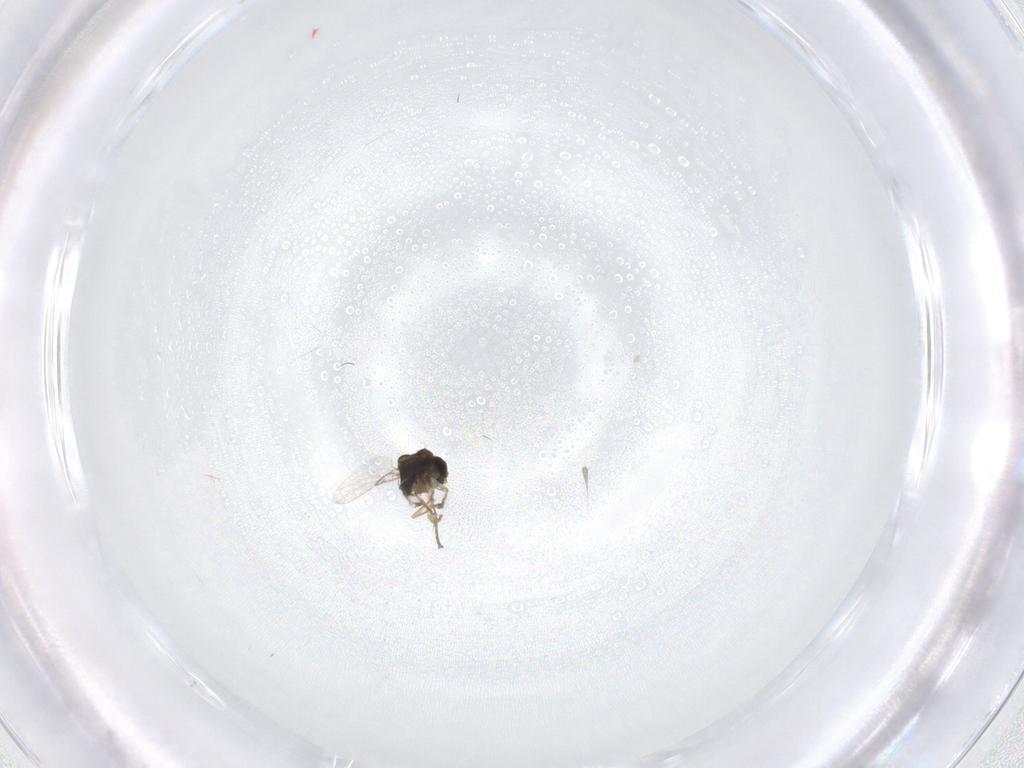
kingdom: Animalia
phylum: Arthropoda
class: Insecta
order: Diptera
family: Phoridae
